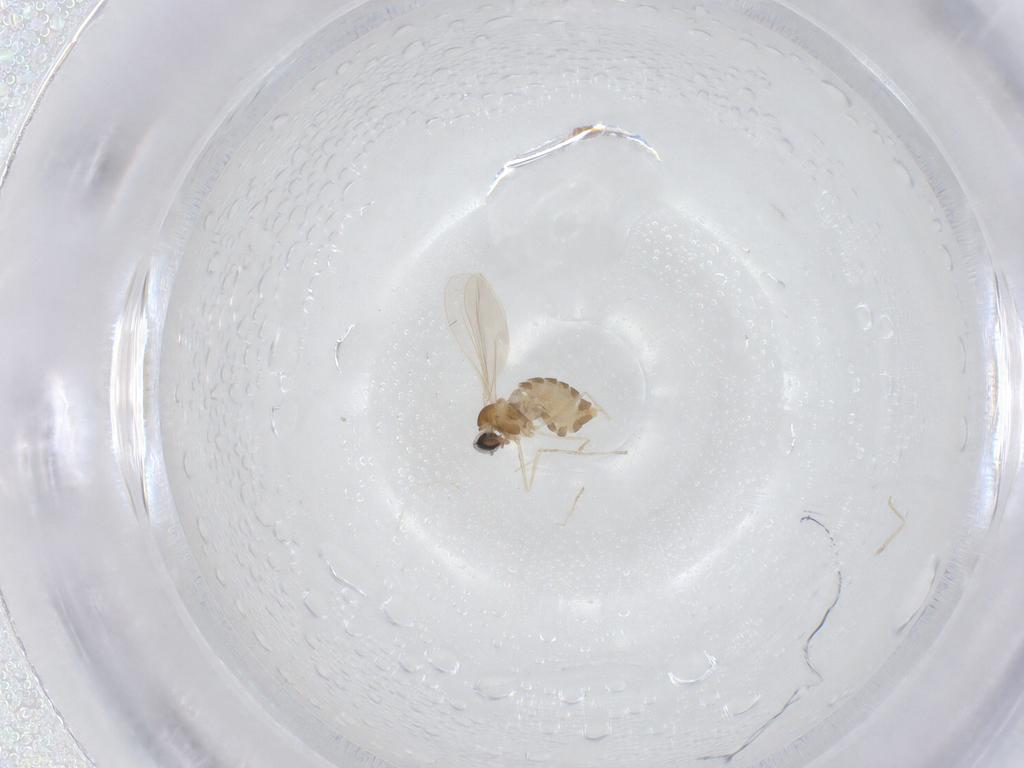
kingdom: Animalia
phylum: Arthropoda
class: Insecta
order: Diptera
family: Cecidomyiidae
